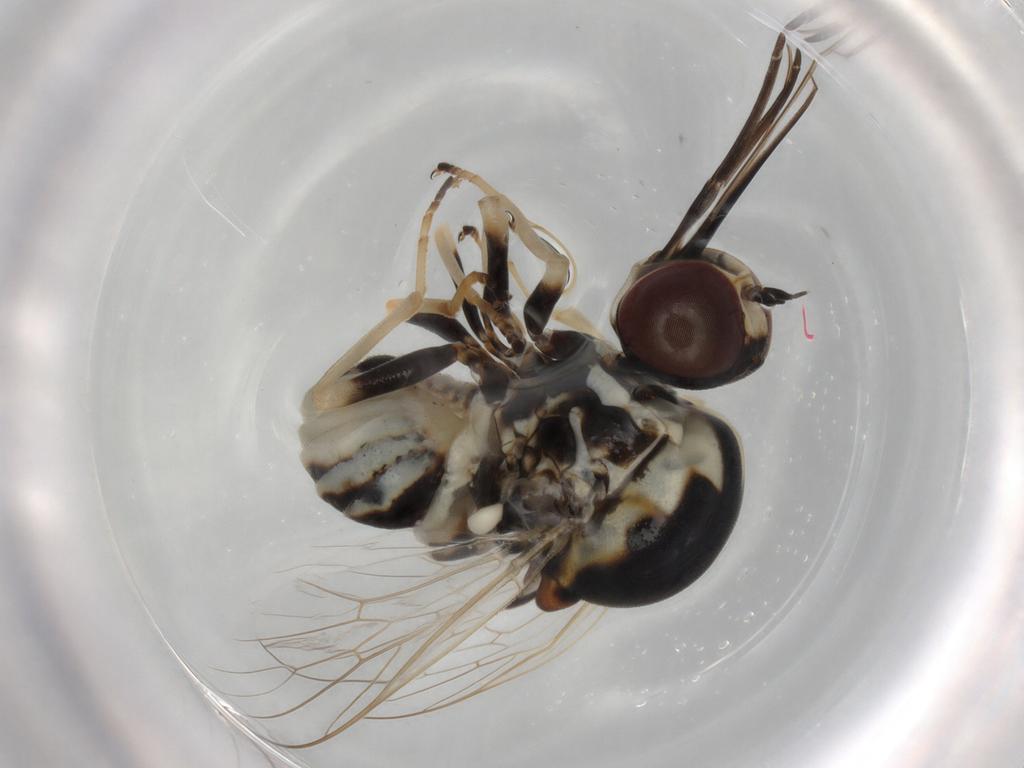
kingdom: Animalia
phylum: Arthropoda
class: Insecta
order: Diptera
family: Bombyliidae
